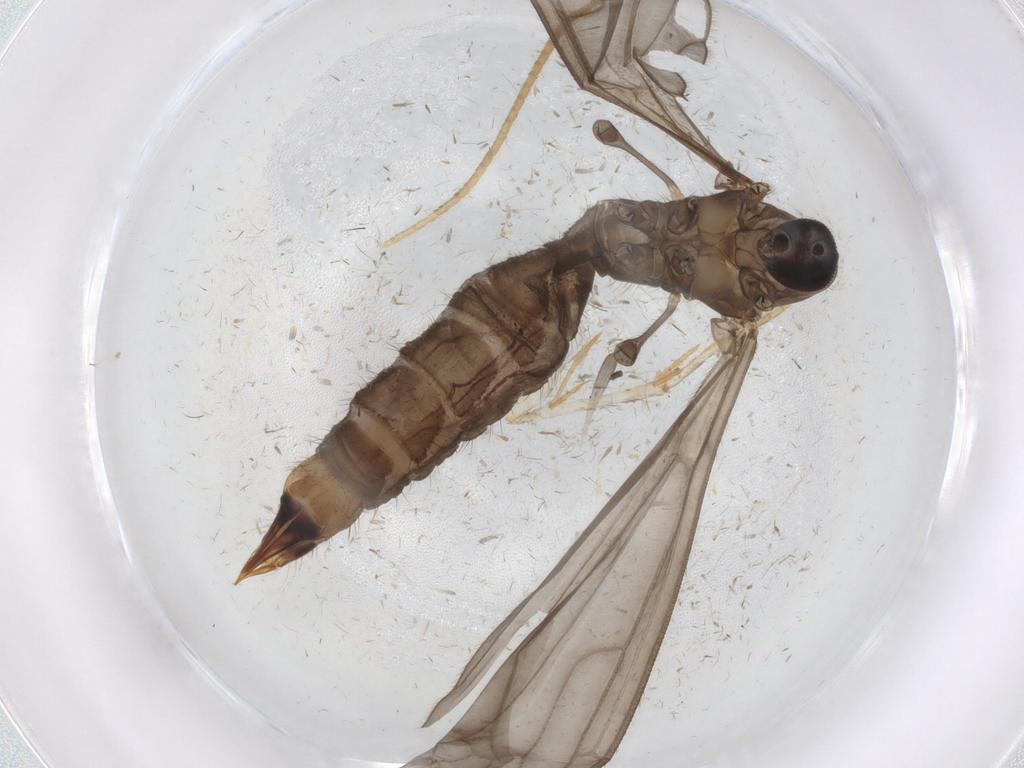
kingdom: Animalia
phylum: Arthropoda
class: Insecta
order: Diptera
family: Limoniidae
